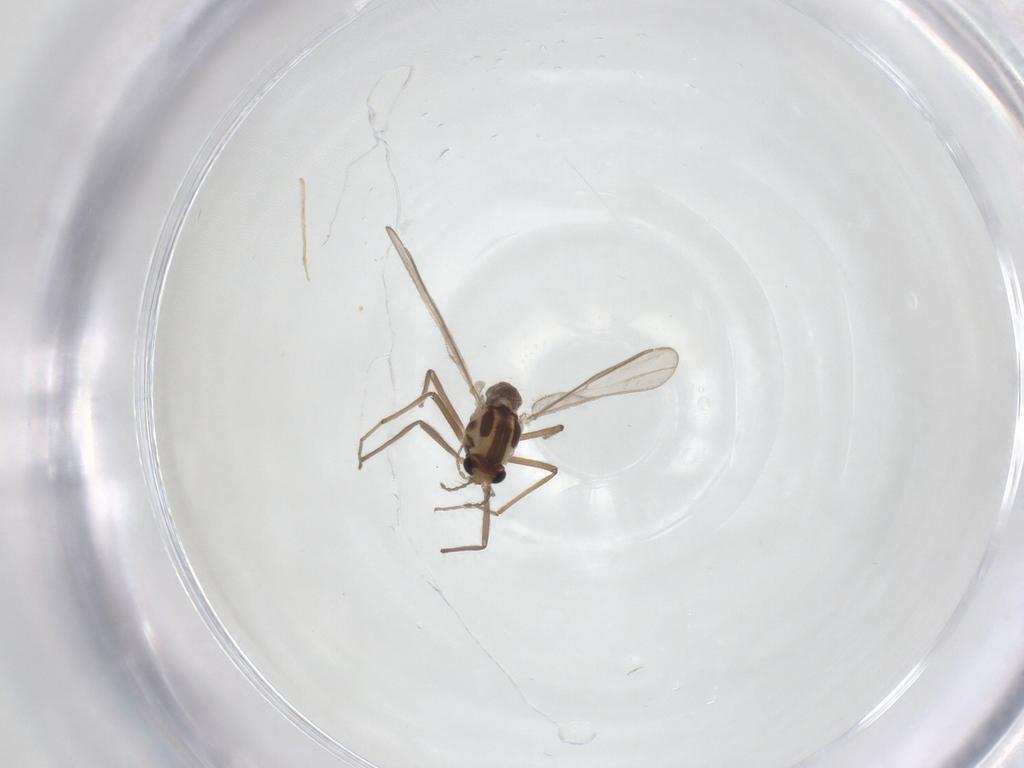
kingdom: Animalia
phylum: Arthropoda
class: Insecta
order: Diptera
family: Chironomidae
